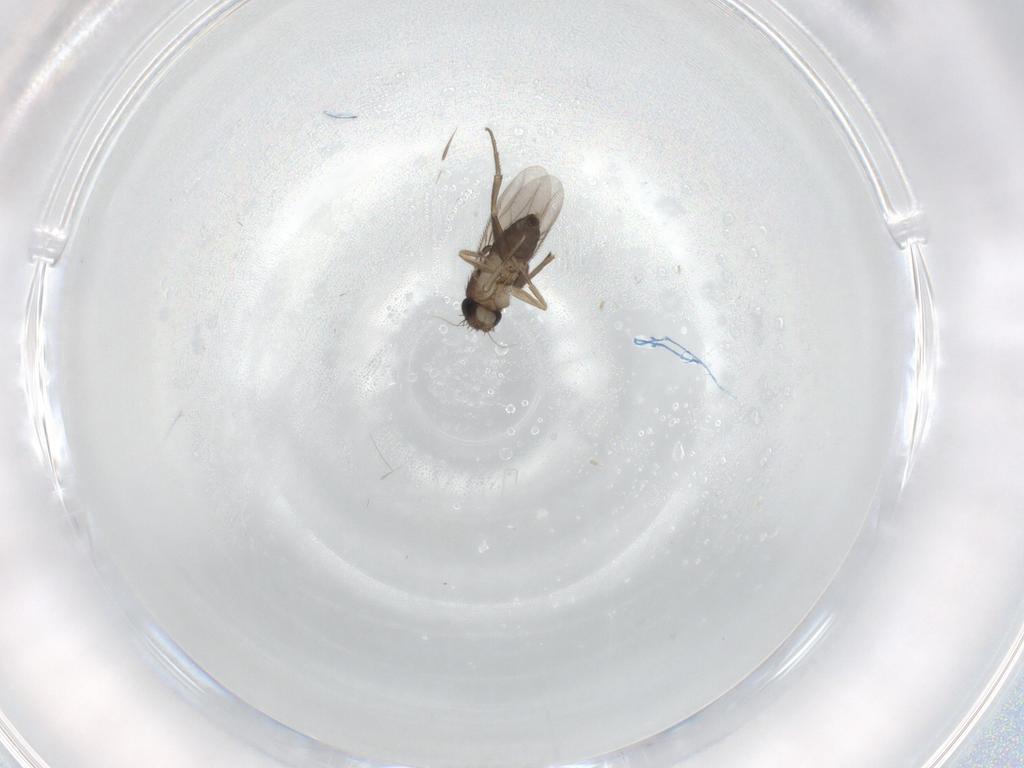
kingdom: Animalia
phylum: Arthropoda
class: Insecta
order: Diptera
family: Phoridae
